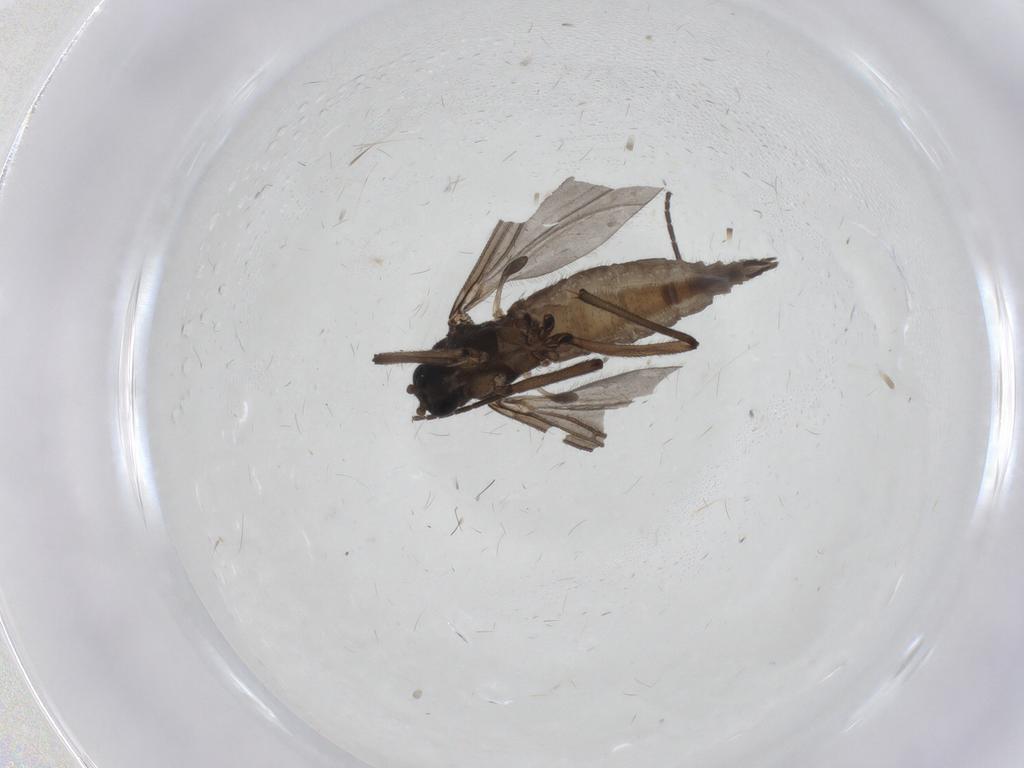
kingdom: Animalia
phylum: Arthropoda
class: Insecta
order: Diptera
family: Sciaridae
